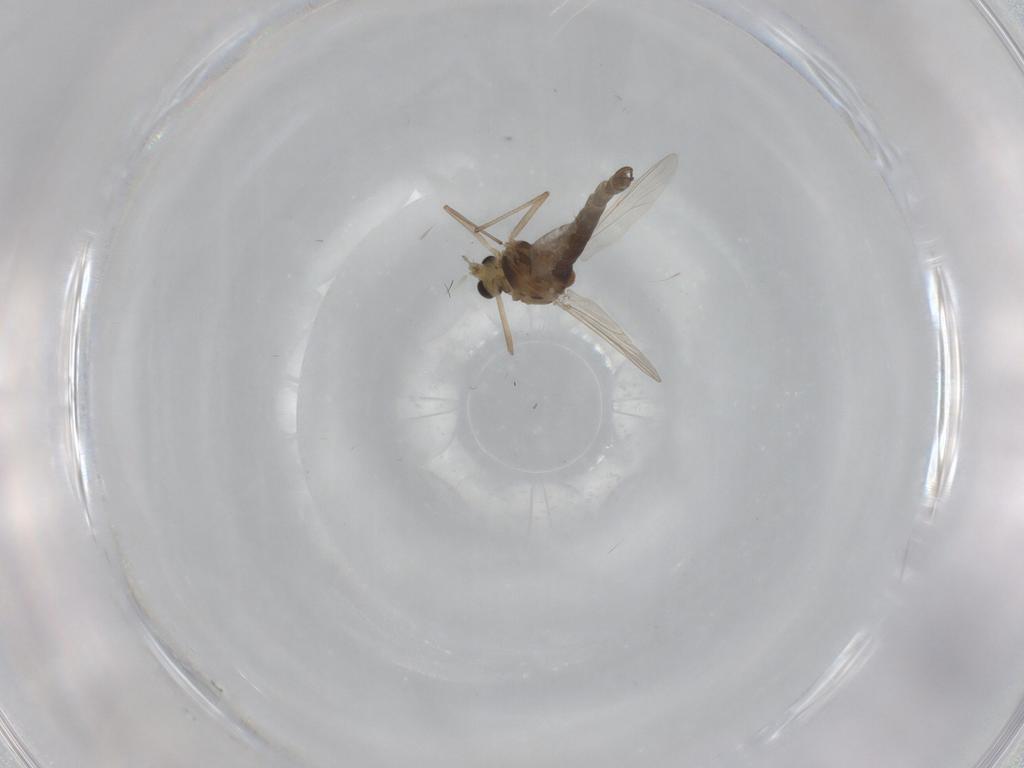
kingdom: Animalia
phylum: Arthropoda
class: Insecta
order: Diptera
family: Chironomidae
